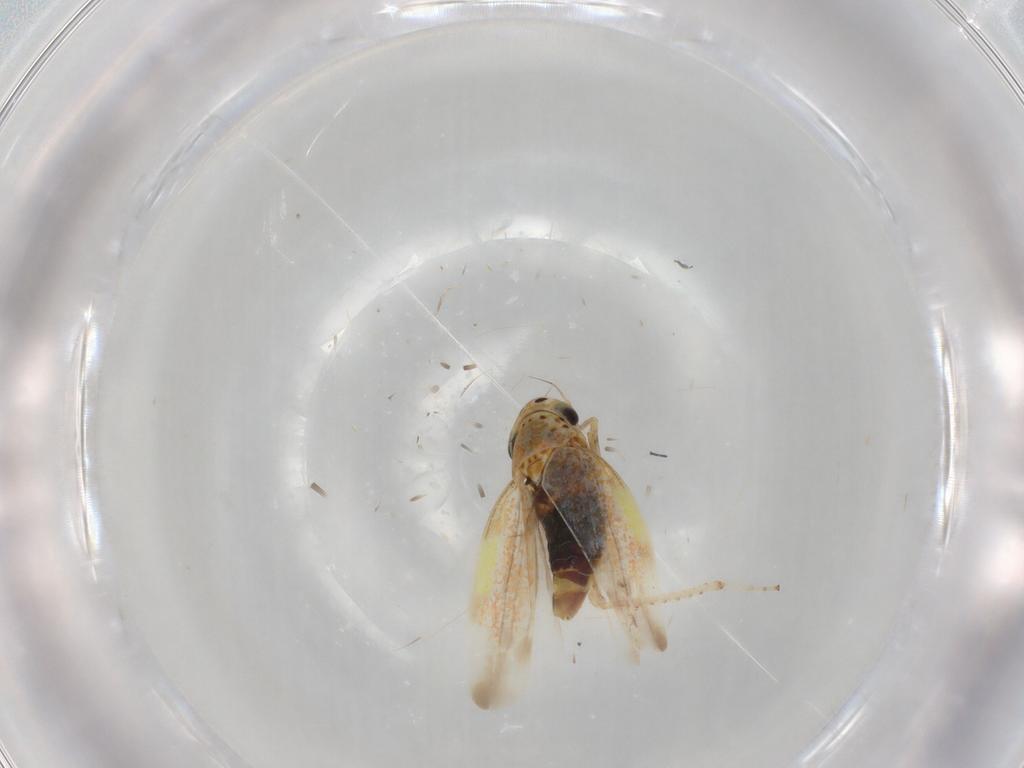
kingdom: Animalia
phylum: Arthropoda
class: Insecta
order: Hemiptera
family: Cicadellidae
